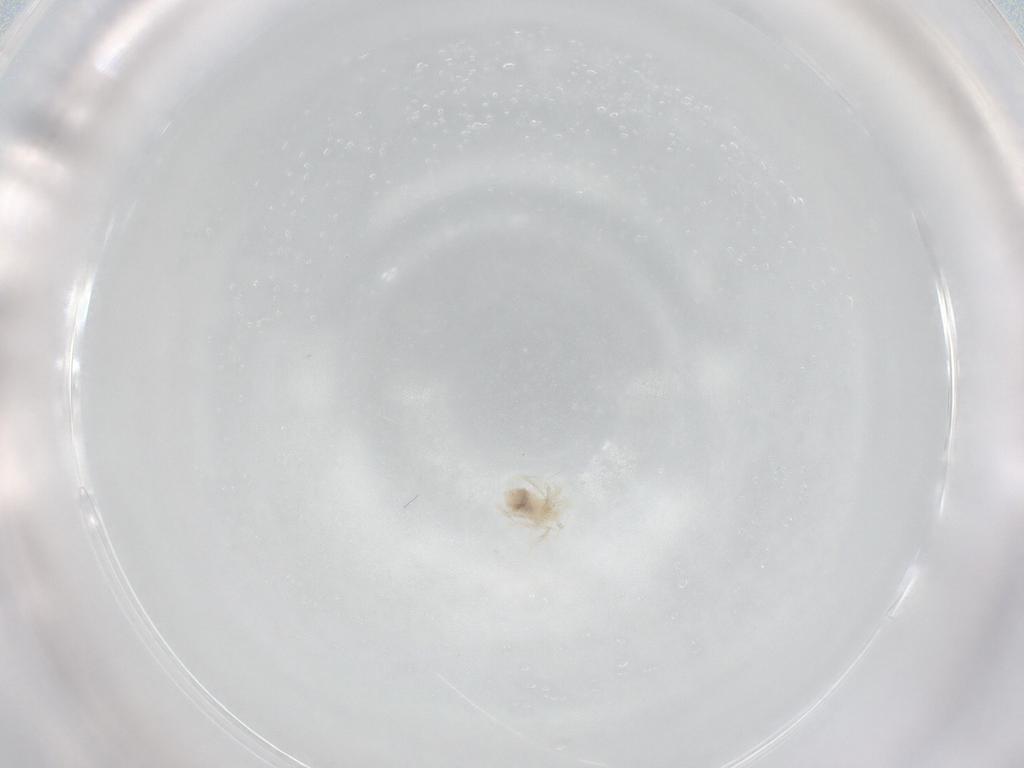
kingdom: Animalia
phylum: Arthropoda
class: Arachnida
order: Trombidiformes
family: Anystidae
